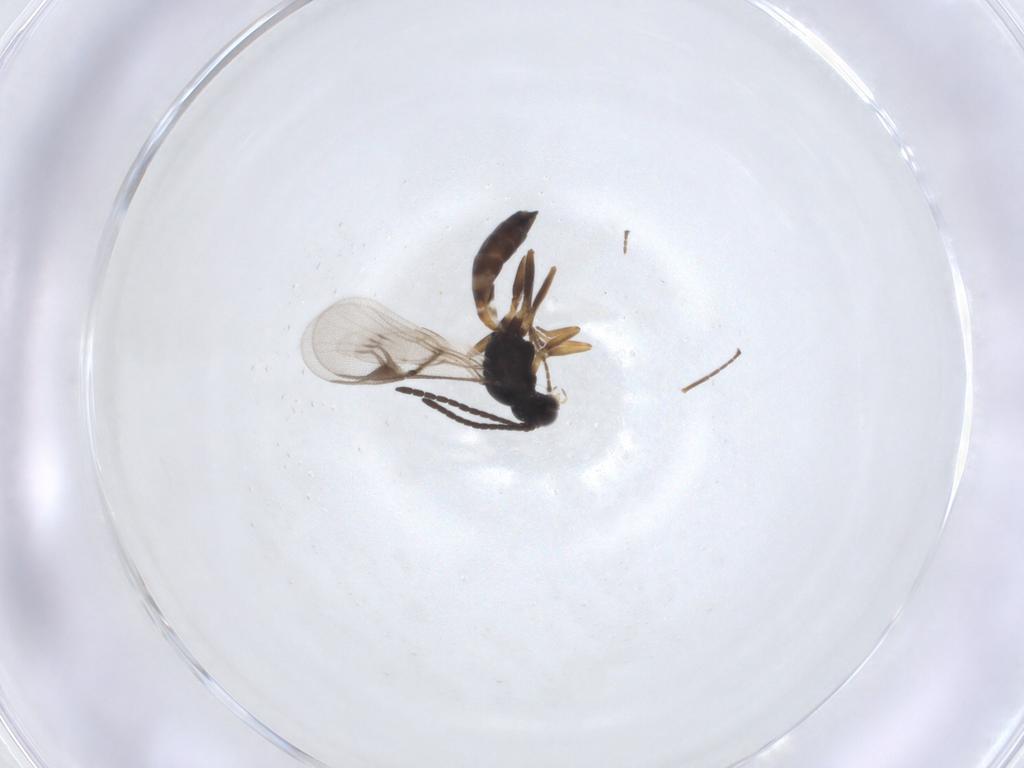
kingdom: Animalia
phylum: Arthropoda
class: Insecta
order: Hymenoptera
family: Braconidae
